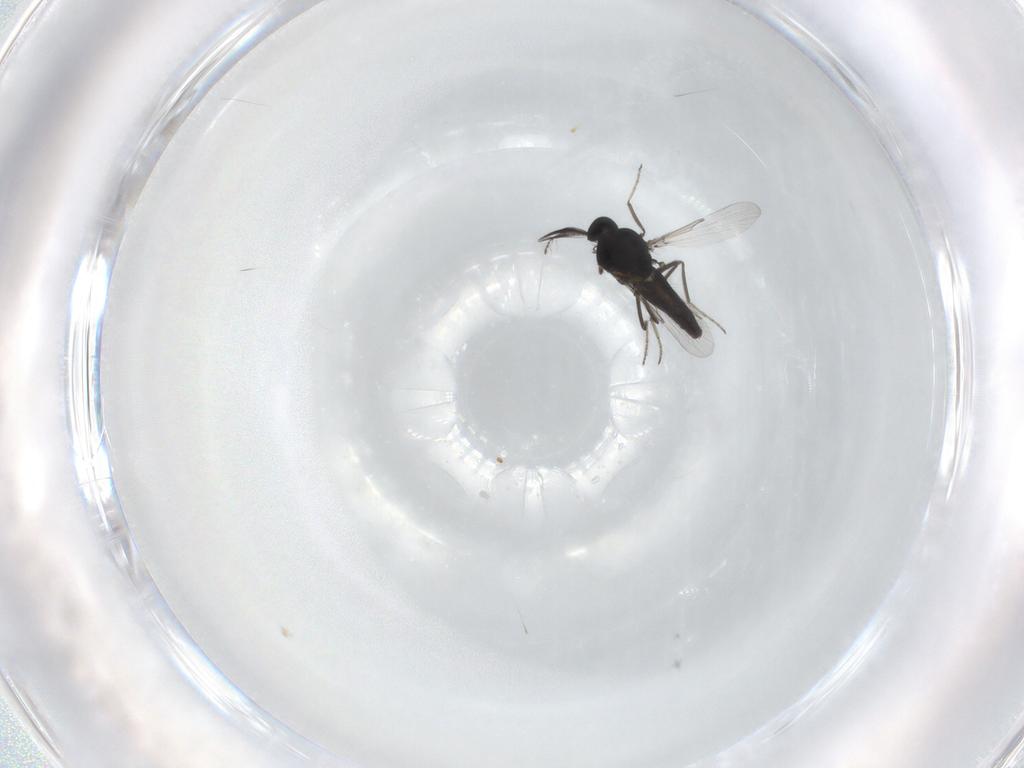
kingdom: Animalia
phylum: Arthropoda
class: Insecta
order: Diptera
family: Ceratopogonidae
